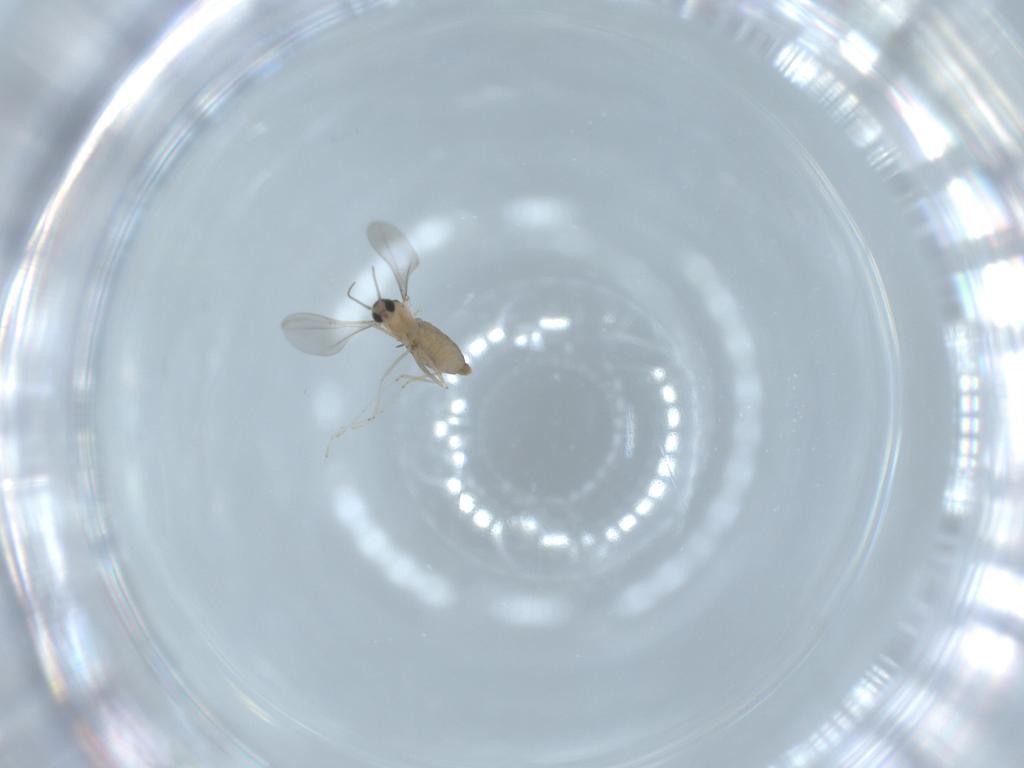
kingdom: Animalia
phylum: Arthropoda
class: Insecta
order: Diptera
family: Cecidomyiidae
